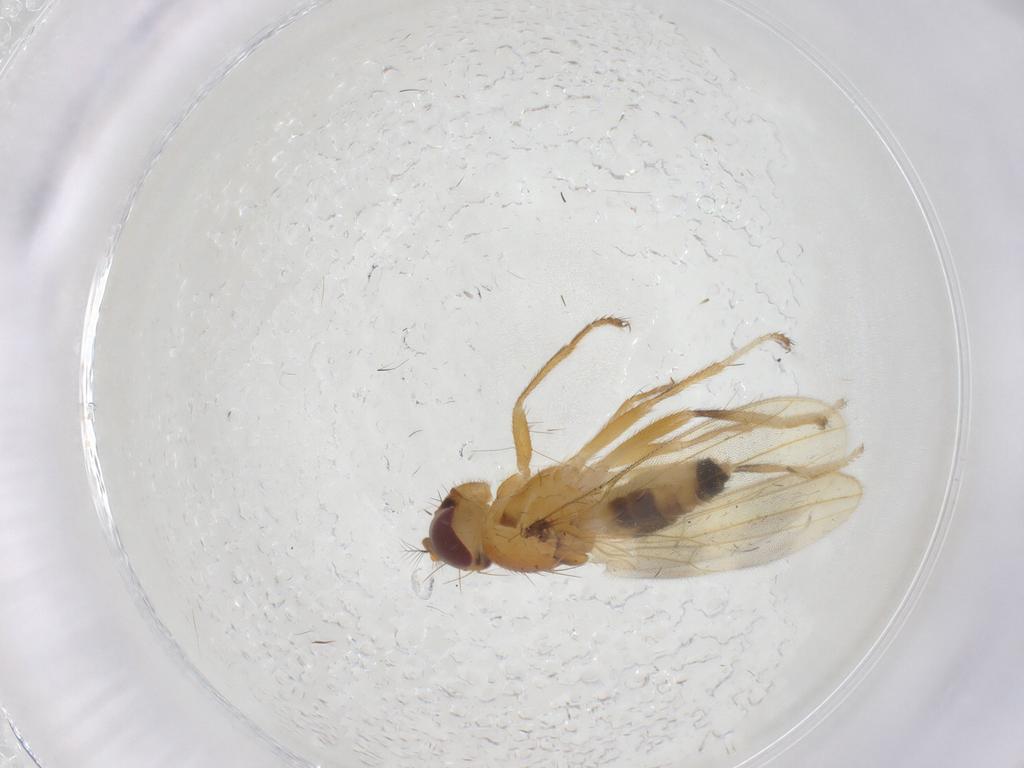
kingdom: Animalia
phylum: Arthropoda
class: Insecta
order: Diptera
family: Periscelididae
